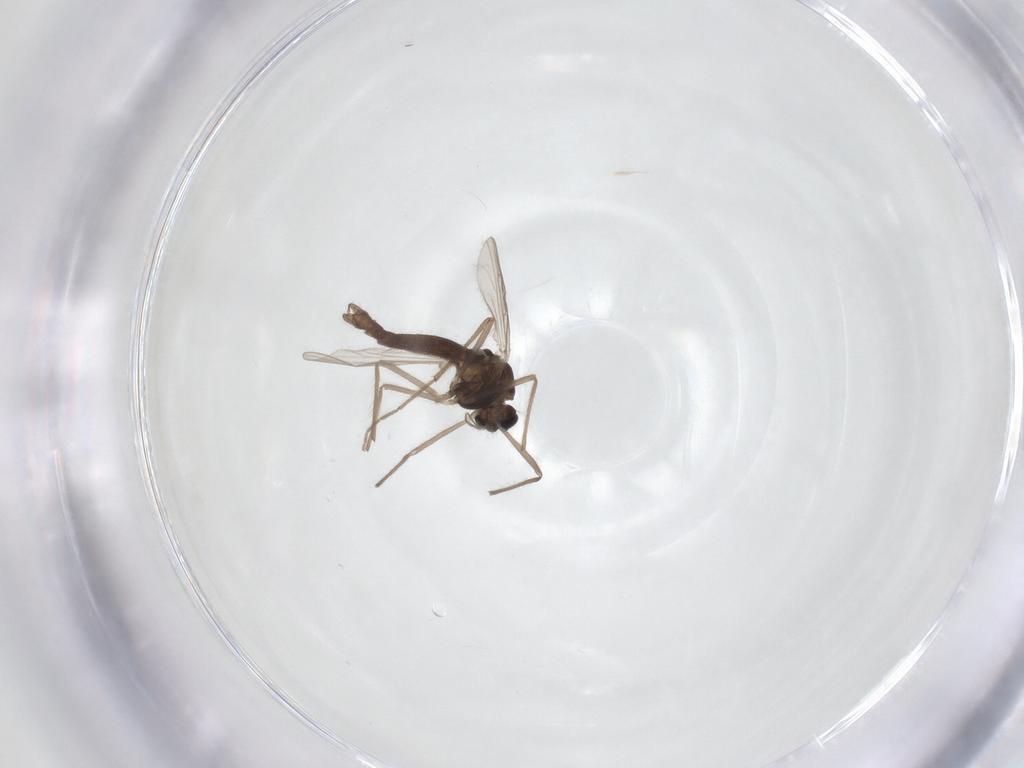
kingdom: Animalia
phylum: Arthropoda
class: Insecta
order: Diptera
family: Chironomidae
